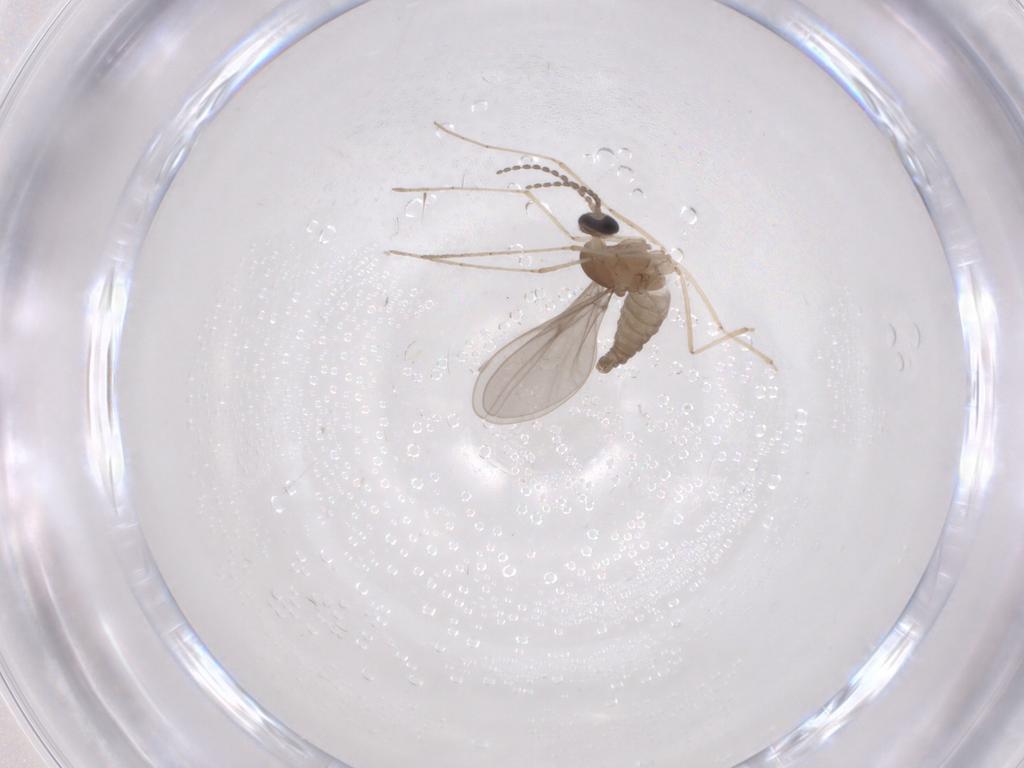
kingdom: Animalia
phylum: Arthropoda
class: Insecta
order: Diptera
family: Cecidomyiidae
